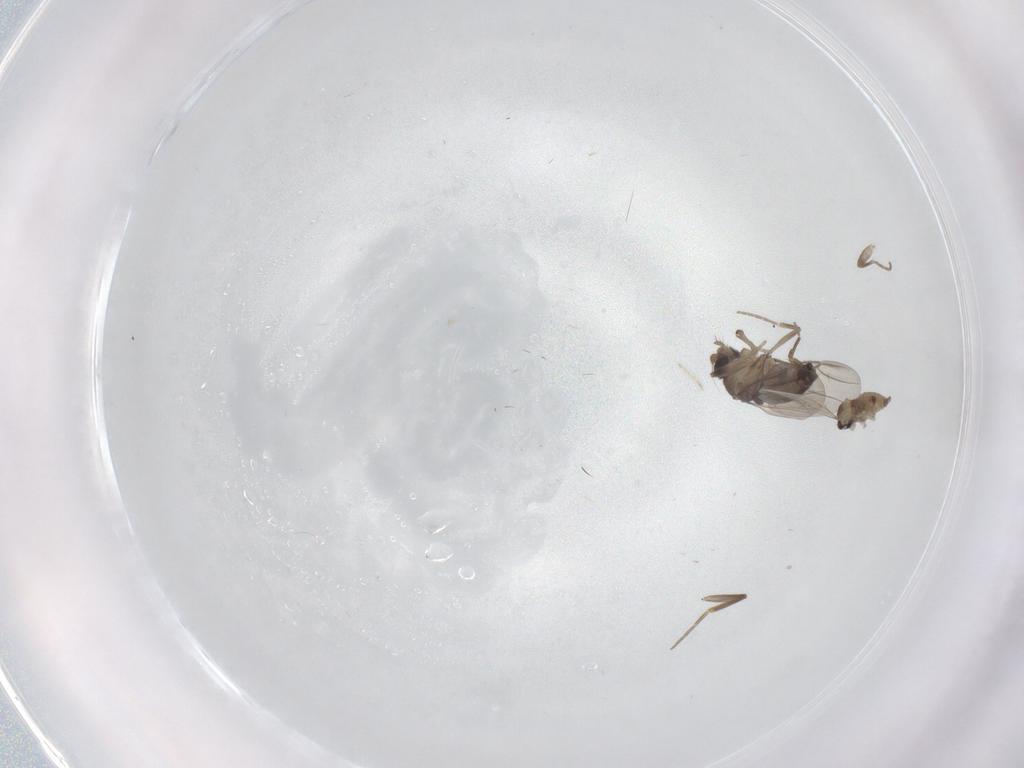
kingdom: Animalia
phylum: Arthropoda
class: Insecta
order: Diptera
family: Phoridae
